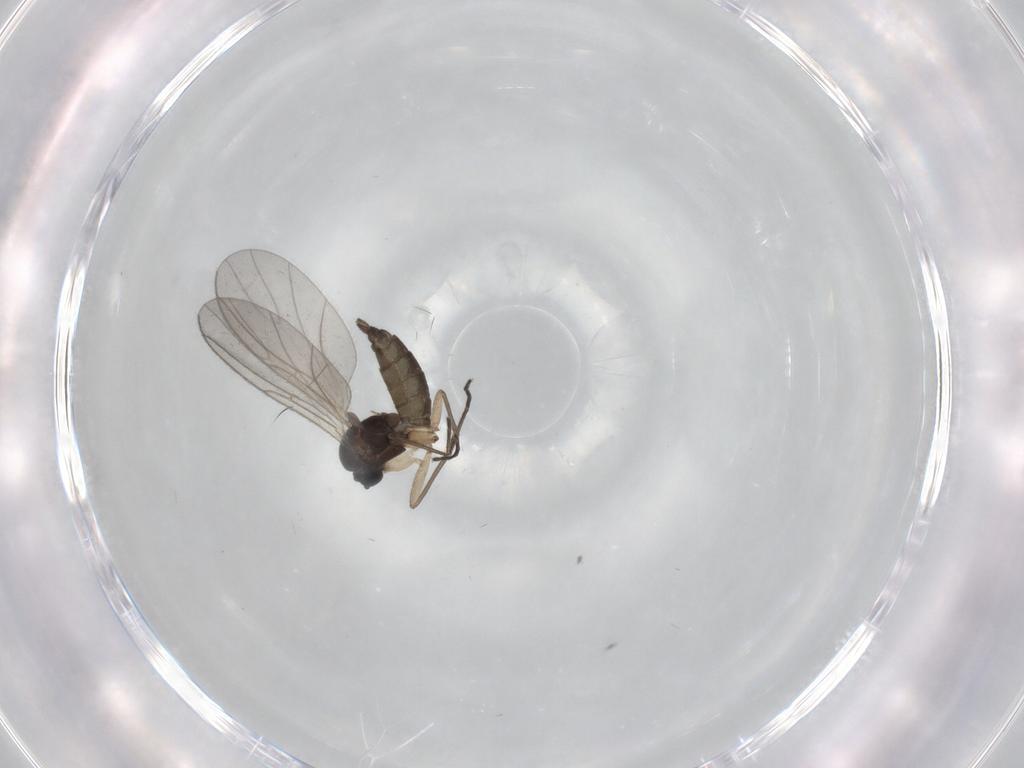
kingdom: Animalia
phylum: Arthropoda
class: Insecta
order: Diptera
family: Sciaridae
